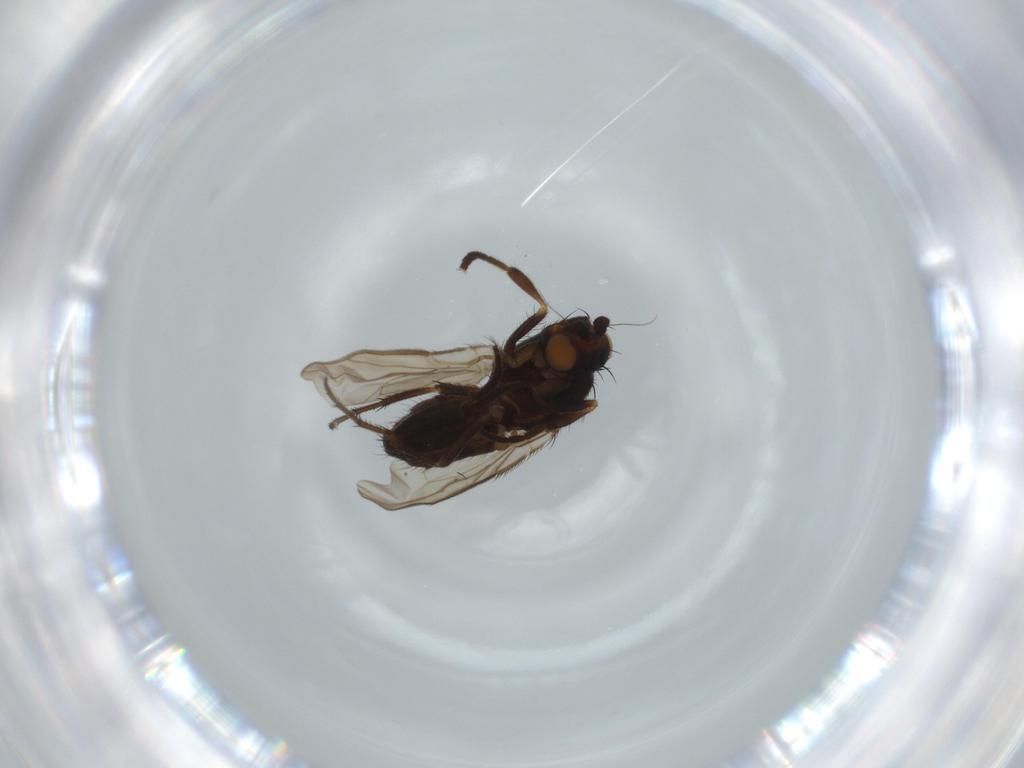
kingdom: Animalia
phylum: Arthropoda
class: Insecta
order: Diptera
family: Sphaeroceridae
